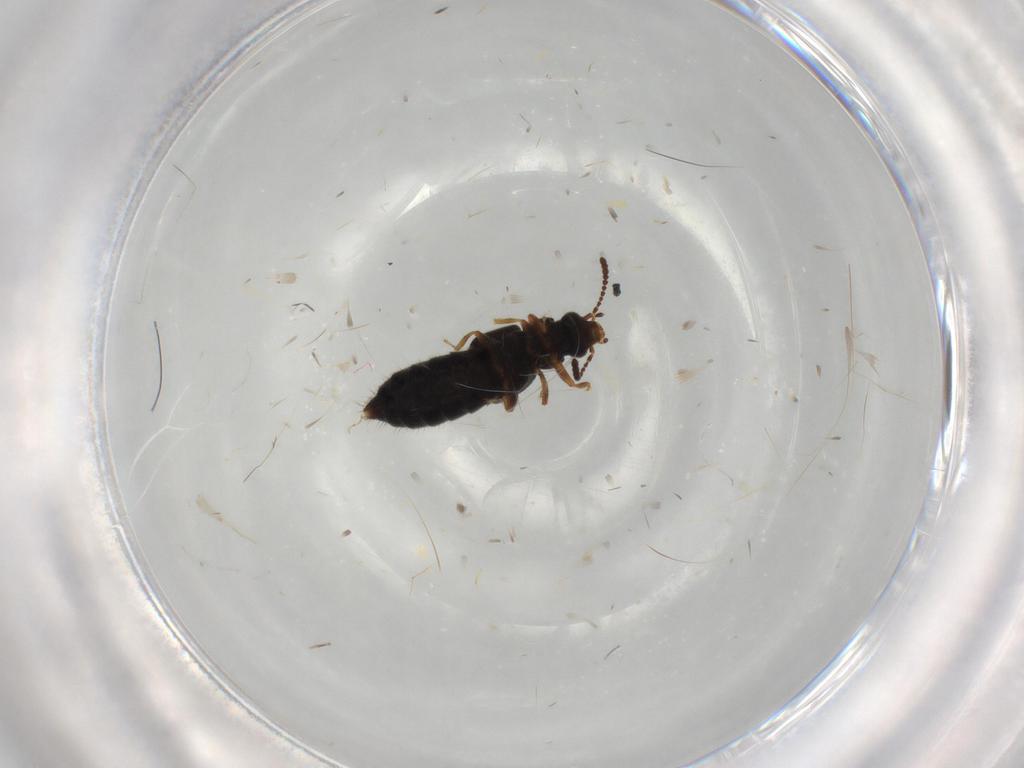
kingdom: Animalia
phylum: Arthropoda
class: Insecta
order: Coleoptera
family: Staphylinidae
